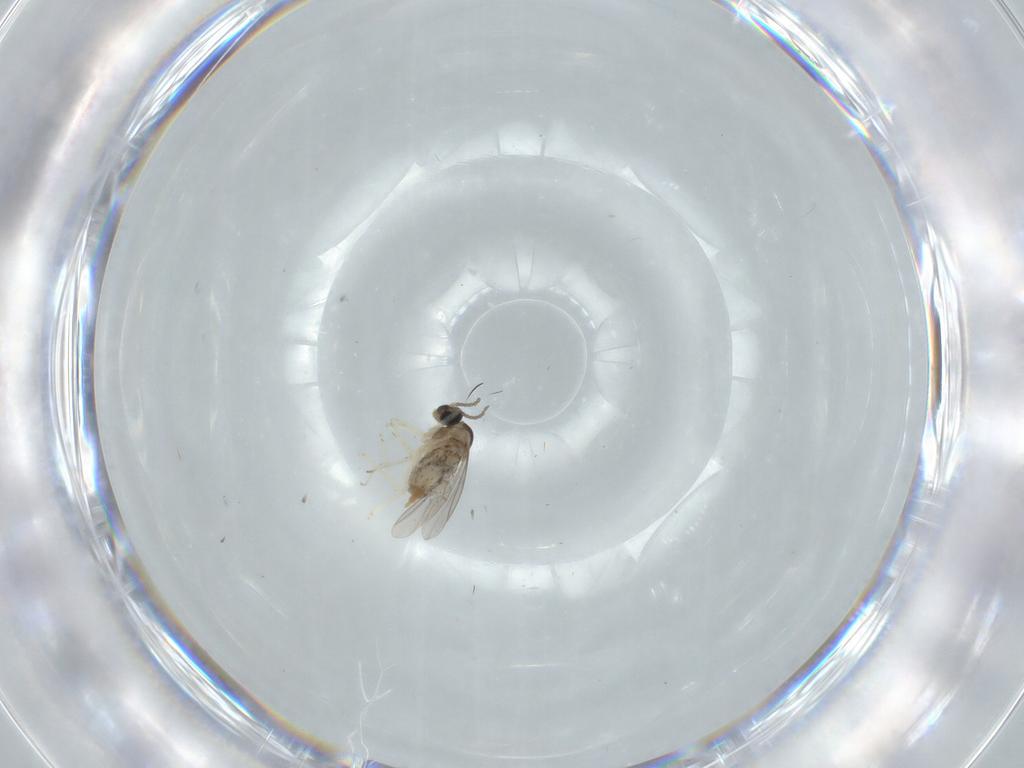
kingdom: Animalia
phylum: Arthropoda
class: Insecta
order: Diptera
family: Cecidomyiidae
